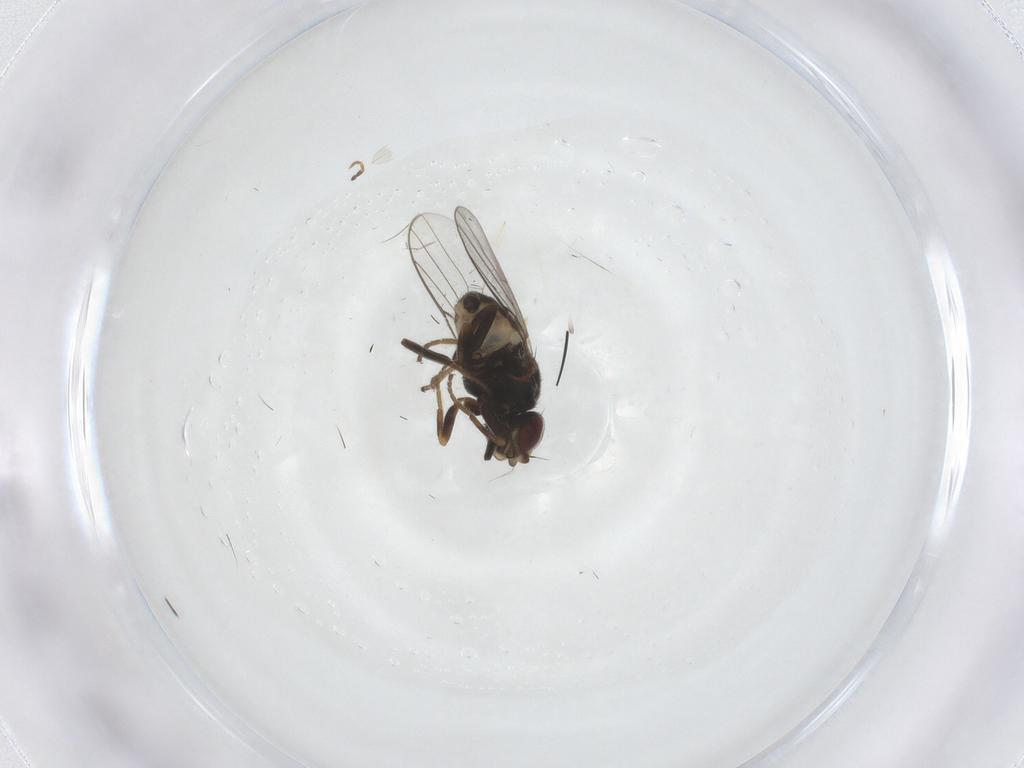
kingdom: Animalia
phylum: Arthropoda
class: Insecta
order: Diptera
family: Chloropidae
